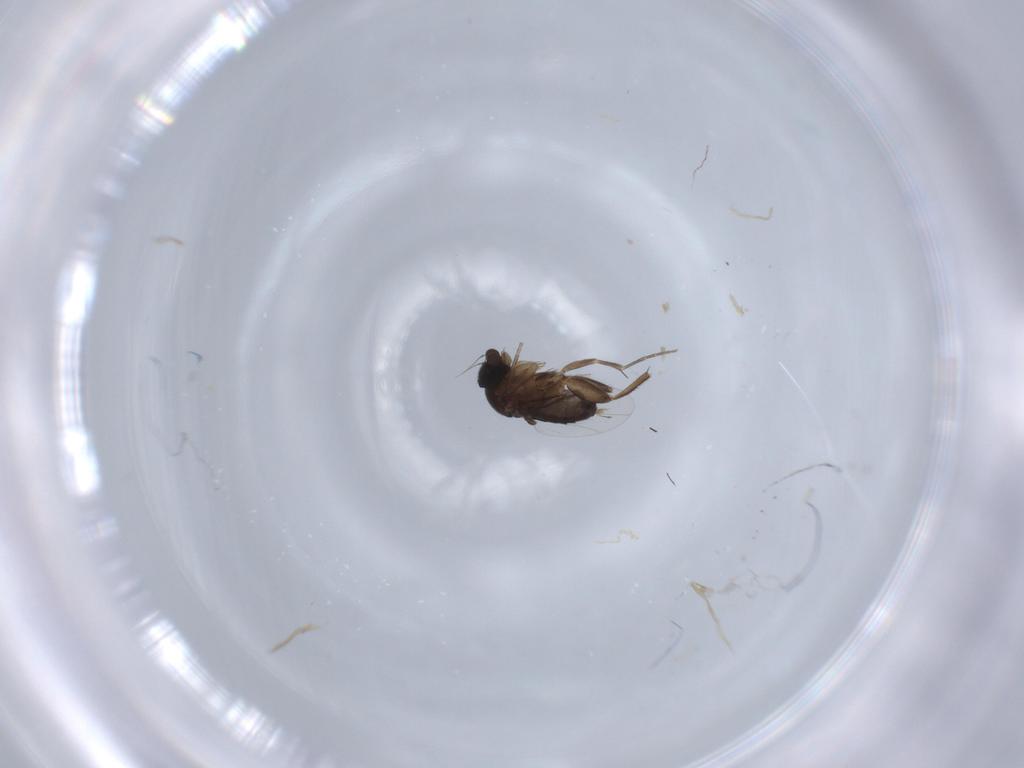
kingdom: Animalia
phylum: Arthropoda
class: Insecta
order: Diptera
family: Phoridae
